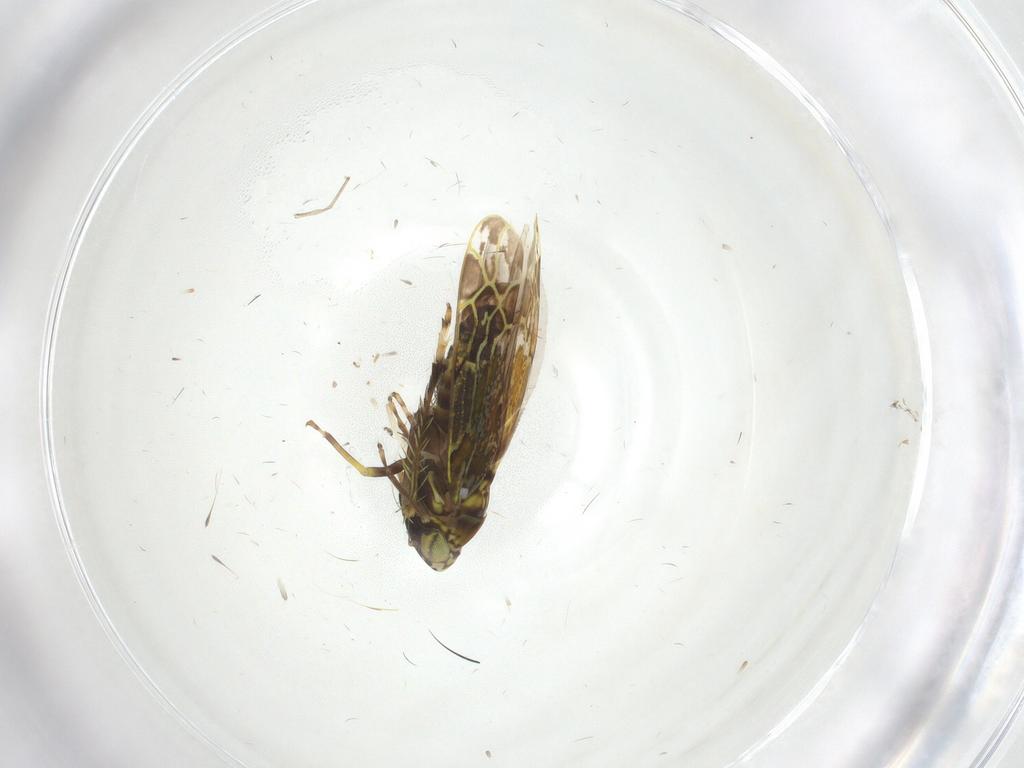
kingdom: Animalia
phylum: Arthropoda
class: Insecta
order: Hemiptera
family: Cicadellidae
